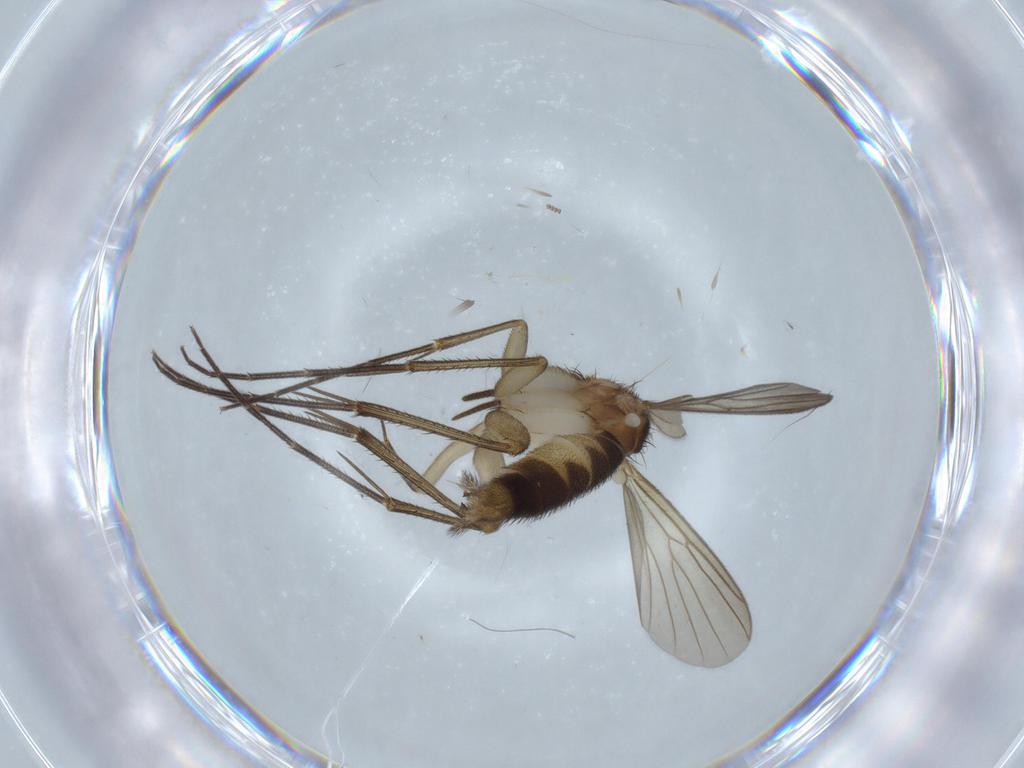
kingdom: Animalia
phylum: Arthropoda
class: Insecta
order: Diptera
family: Mycetophilidae
